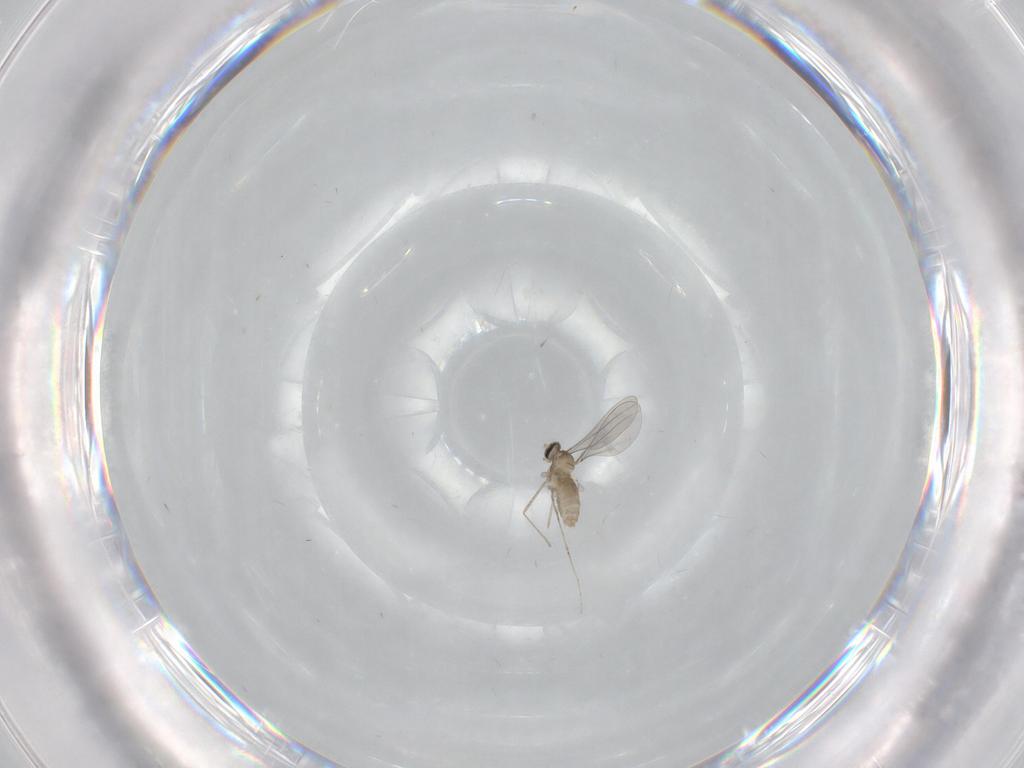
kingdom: Animalia
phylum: Arthropoda
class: Insecta
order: Diptera
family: Cecidomyiidae
